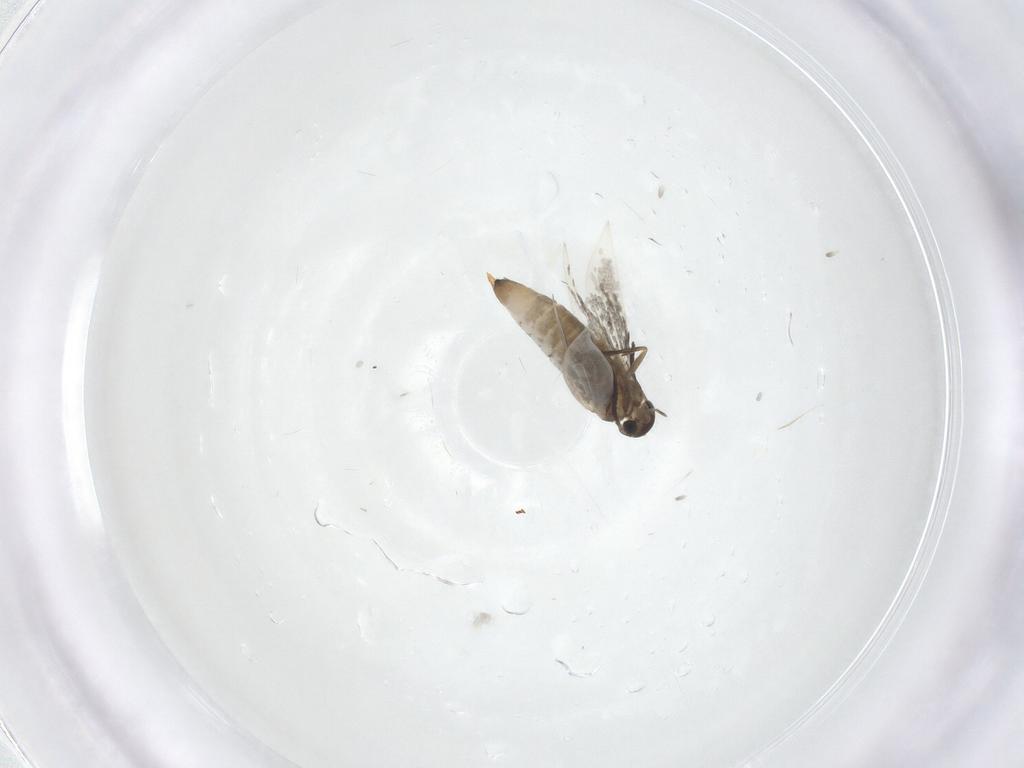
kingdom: Animalia
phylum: Arthropoda
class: Insecta
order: Lepidoptera
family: Heliozelidae
